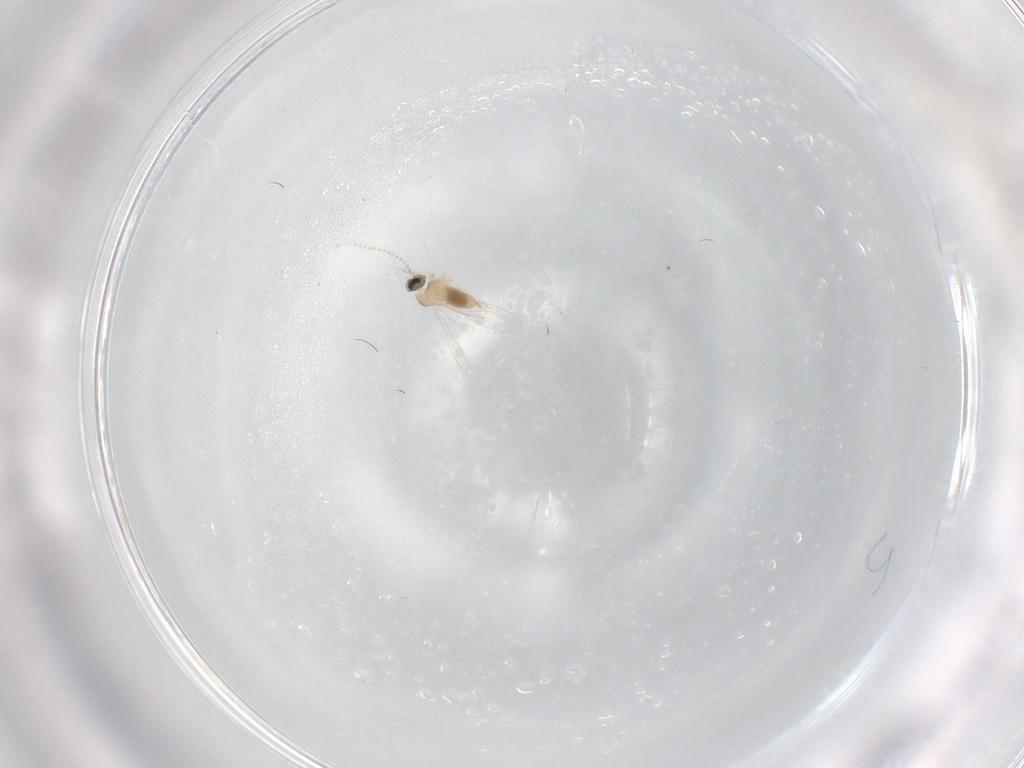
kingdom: Animalia
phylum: Arthropoda
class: Insecta
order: Diptera
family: Cecidomyiidae
